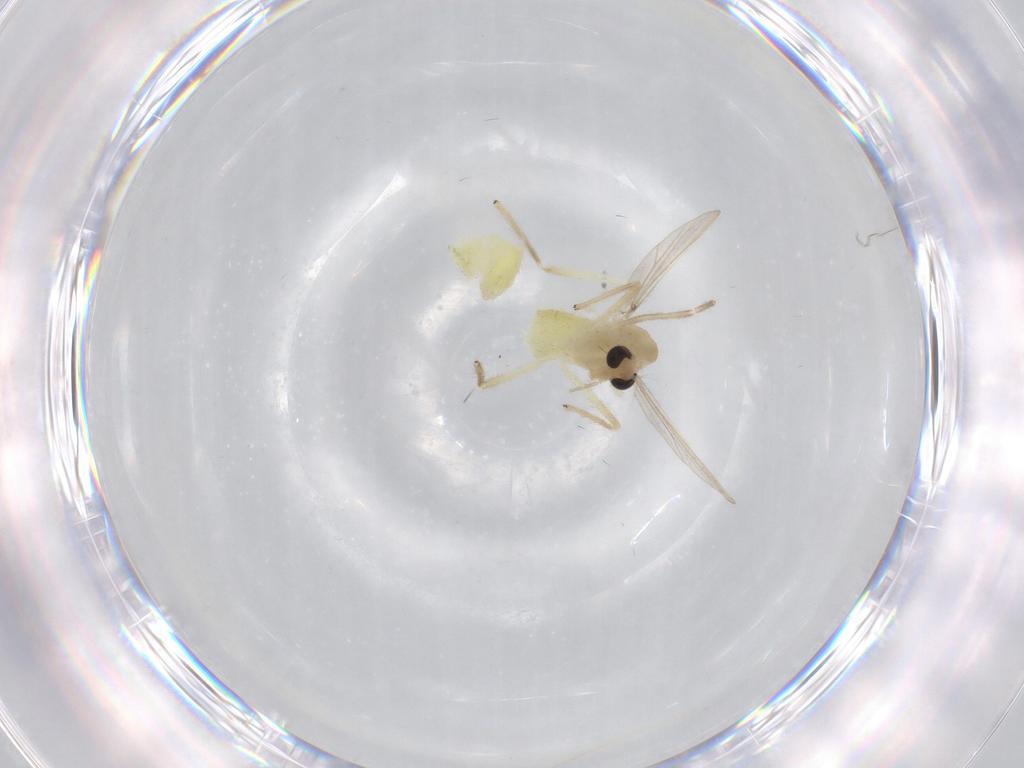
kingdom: Animalia
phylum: Arthropoda
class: Insecta
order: Diptera
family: Chironomidae
